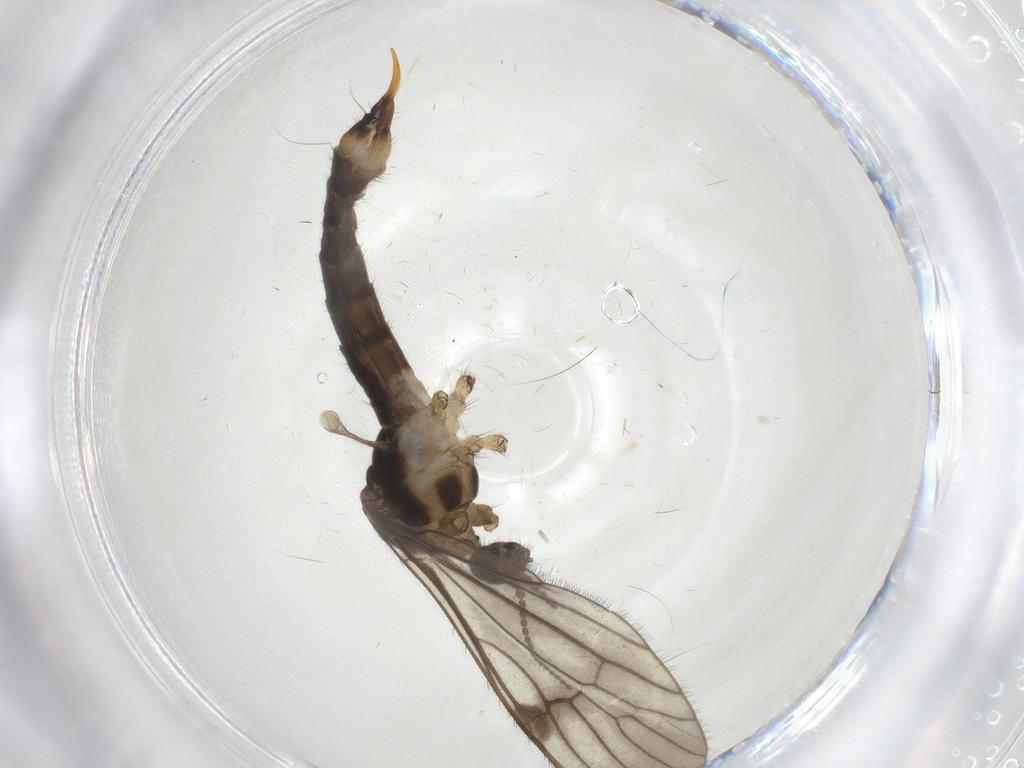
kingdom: Animalia
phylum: Arthropoda
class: Insecta
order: Diptera
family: Limoniidae
